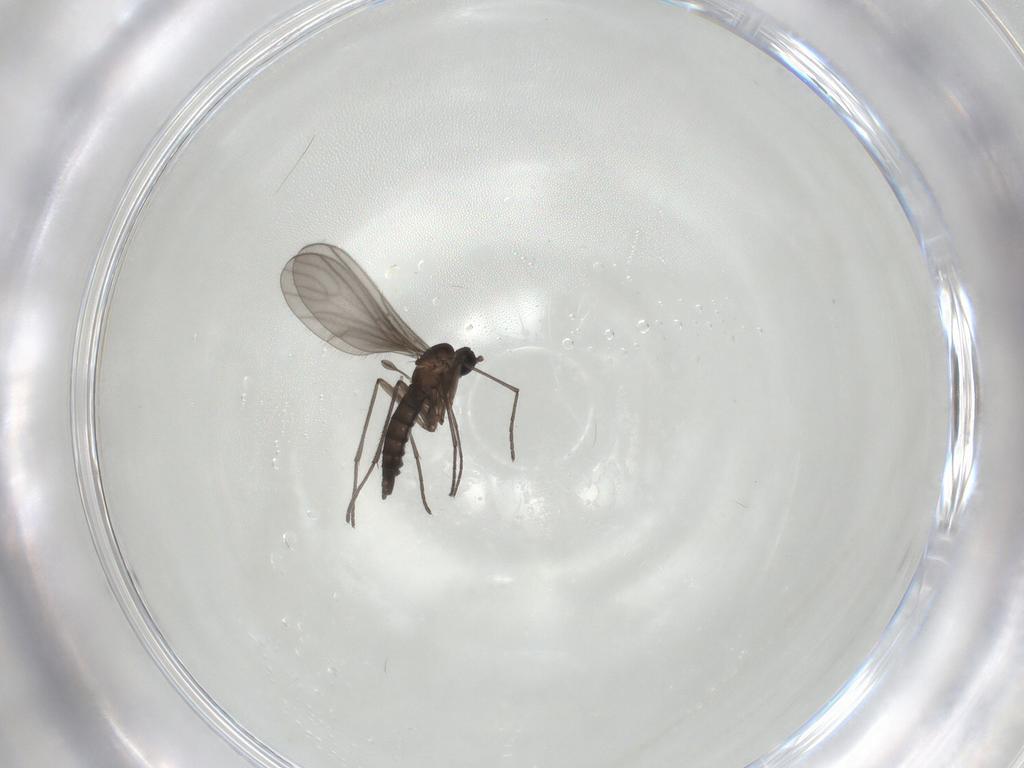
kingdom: Animalia
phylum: Arthropoda
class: Insecta
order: Diptera
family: Sciaridae
